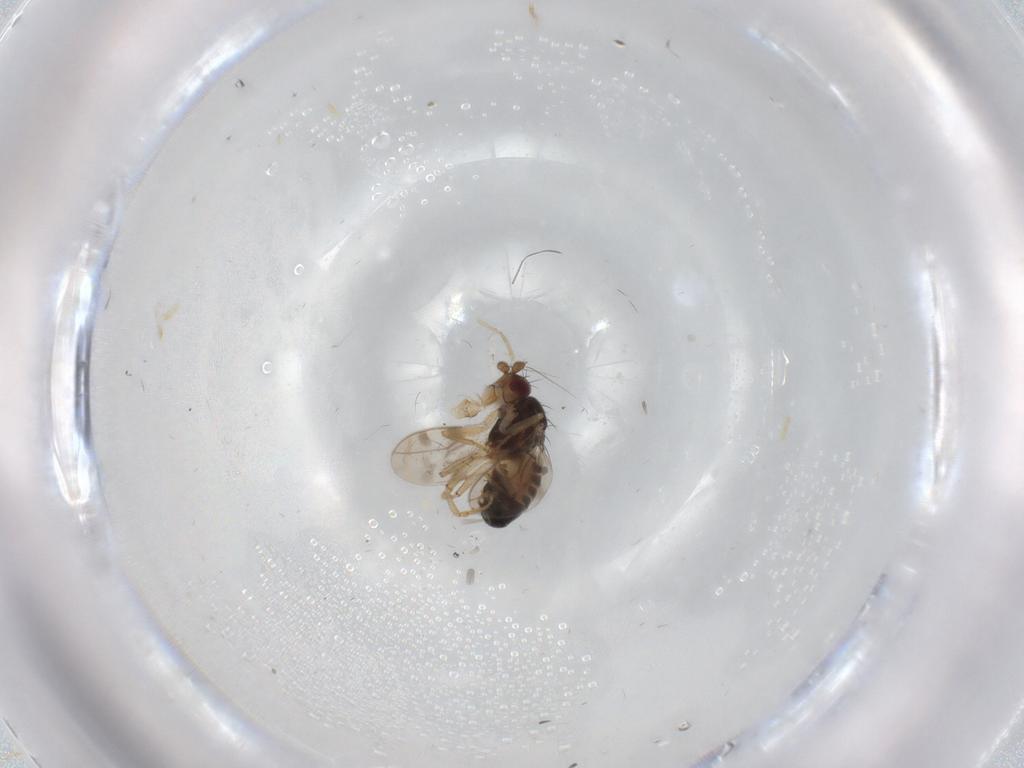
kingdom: Animalia
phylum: Arthropoda
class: Insecta
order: Diptera
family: Sphaeroceridae
